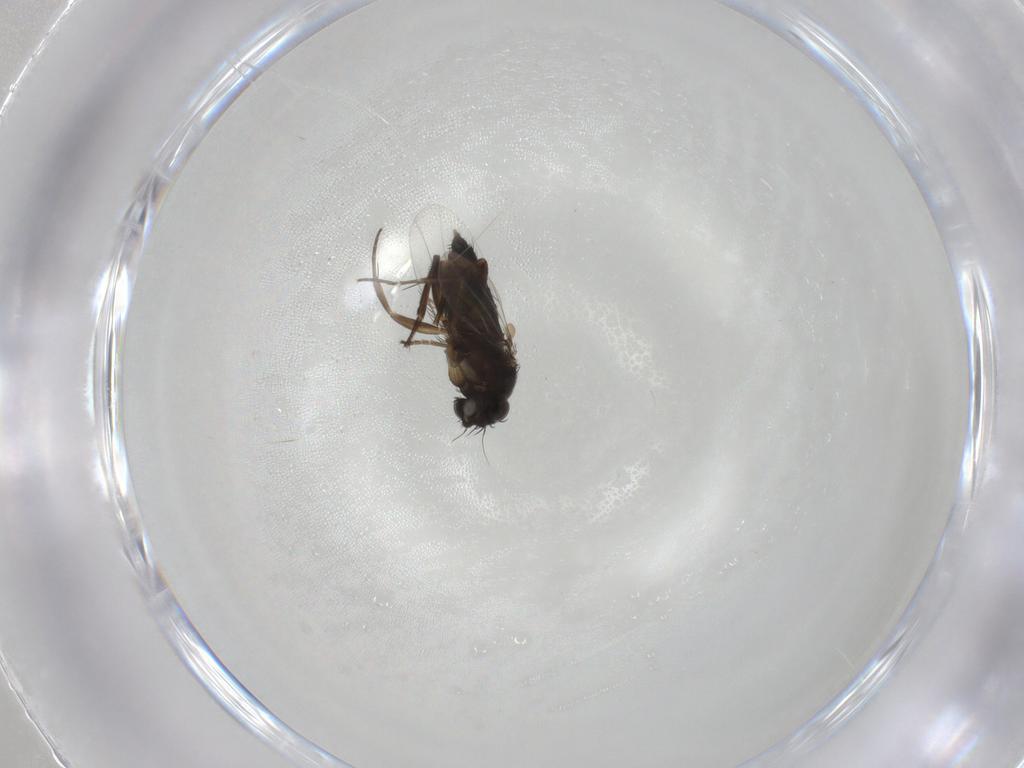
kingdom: Animalia
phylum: Arthropoda
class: Insecta
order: Diptera
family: Phoridae
